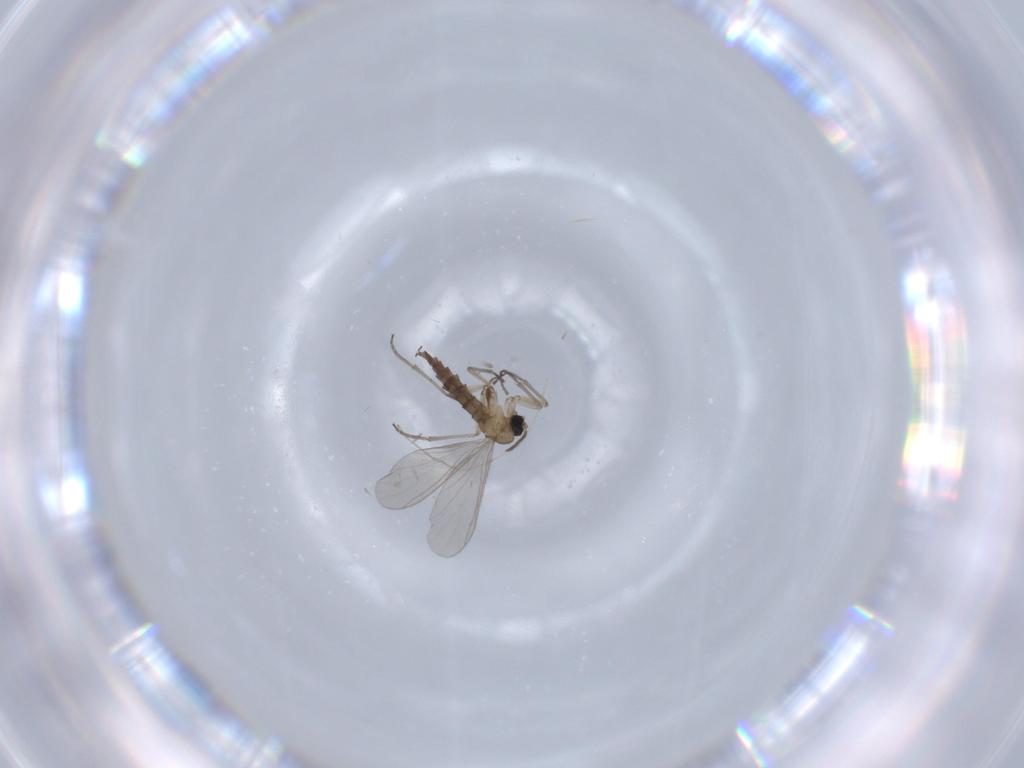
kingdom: Animalia
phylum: Arthropoda
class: Insecta
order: Diptera
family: Sciaridae
